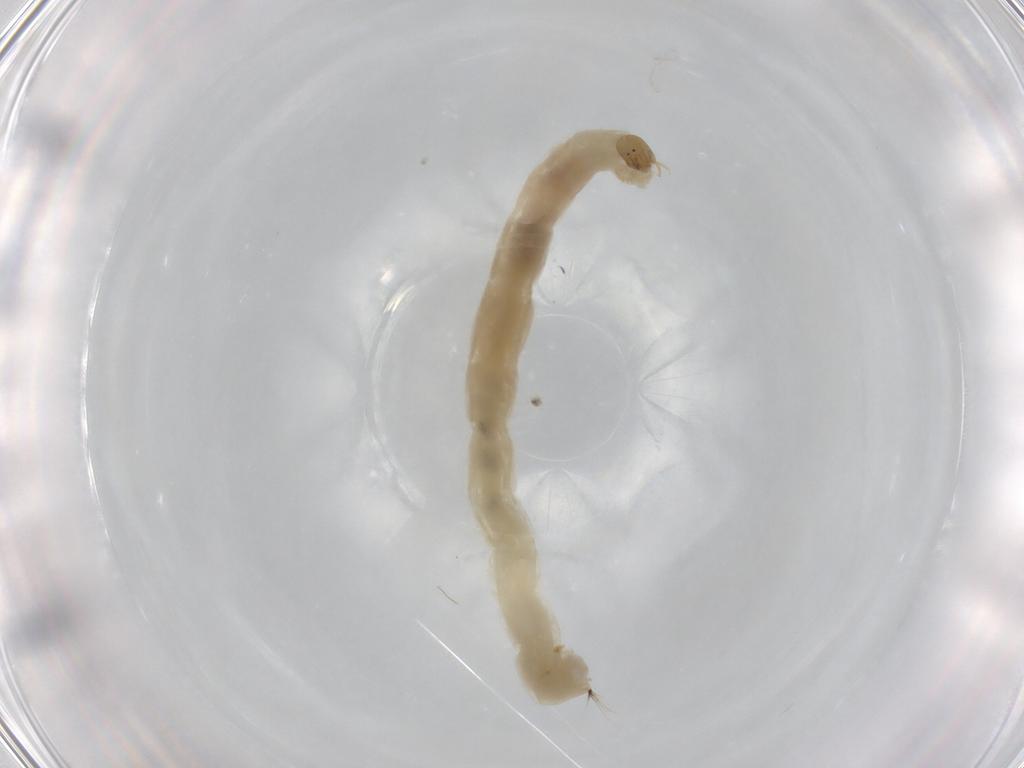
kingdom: Animalia
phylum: Arthropoda
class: Insecta
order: Diptera
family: Chironomidae
